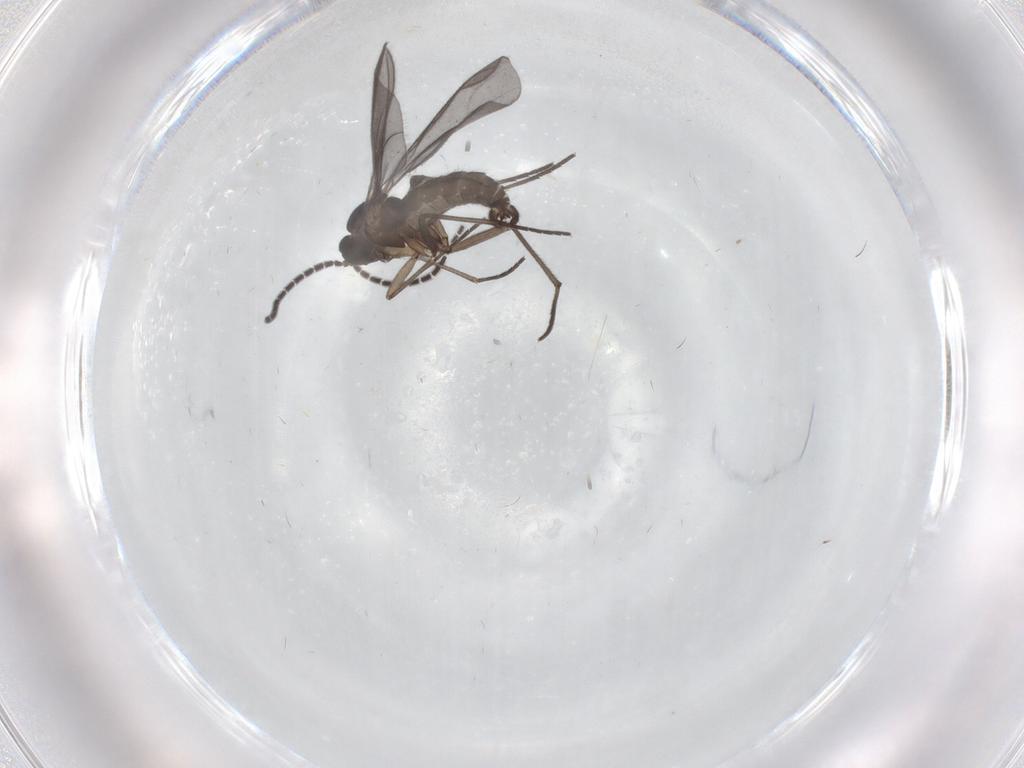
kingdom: Animalia
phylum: Arthropoda
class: Insecta
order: Diptera
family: Sciaridae
